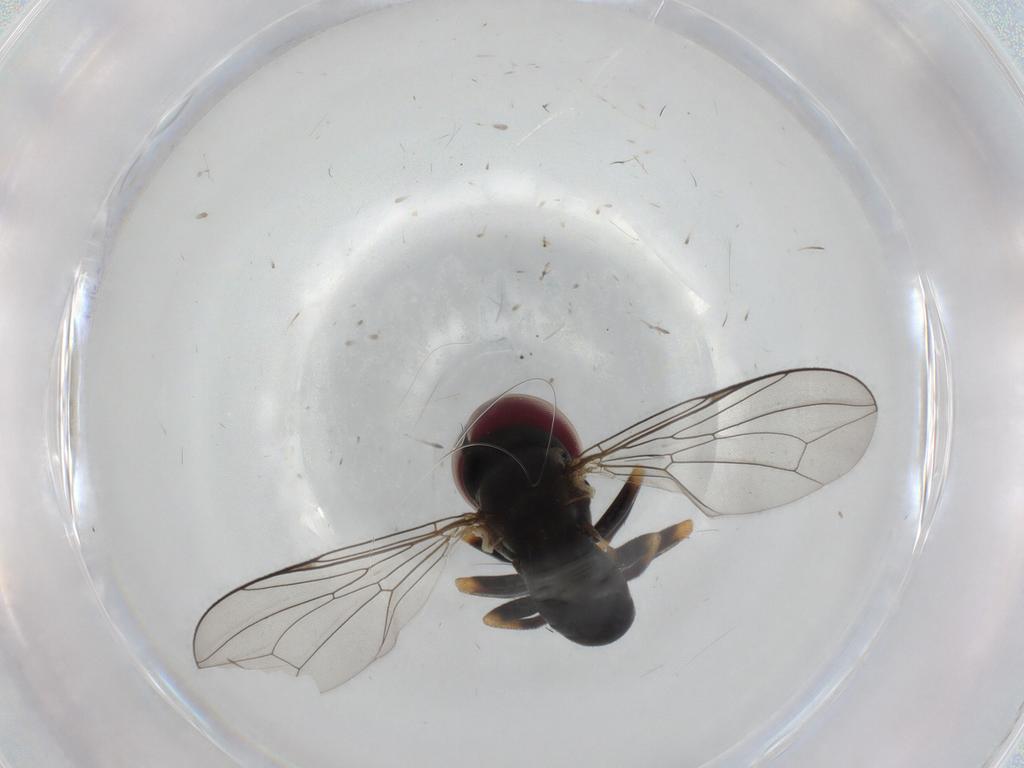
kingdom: Animalia
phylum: Arthropoda
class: Insecta
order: Diptera
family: Pipunculidae
